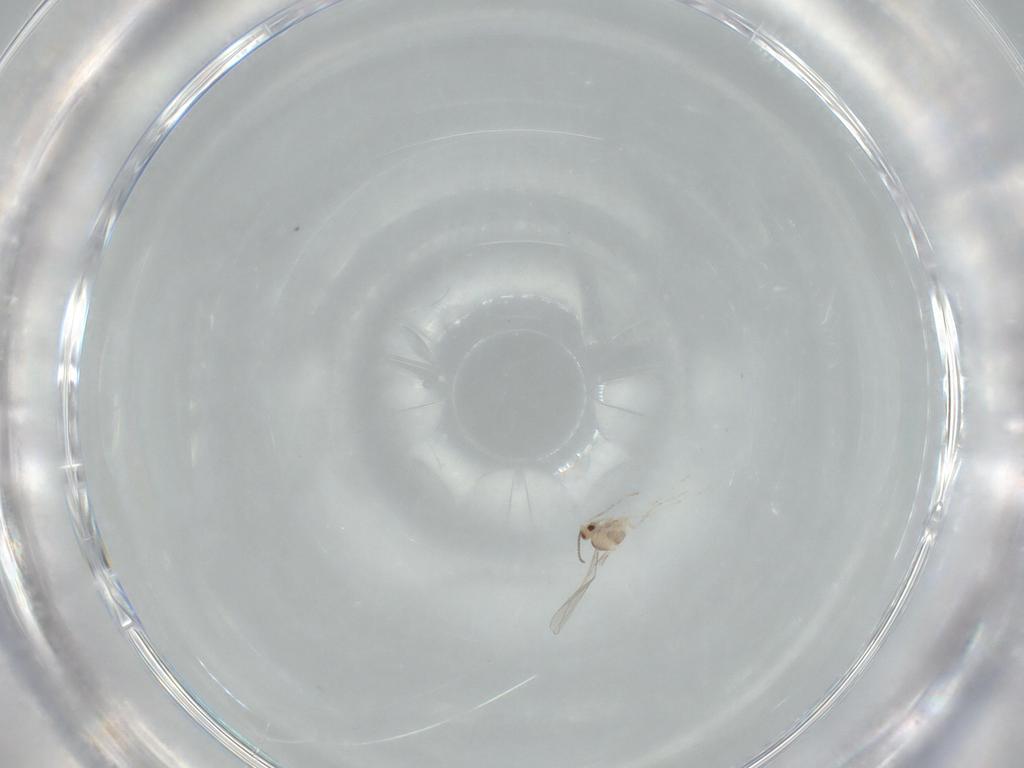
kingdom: Animalia
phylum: Arthropoda
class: Insecta
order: Diptera
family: Cecidomyiidae
